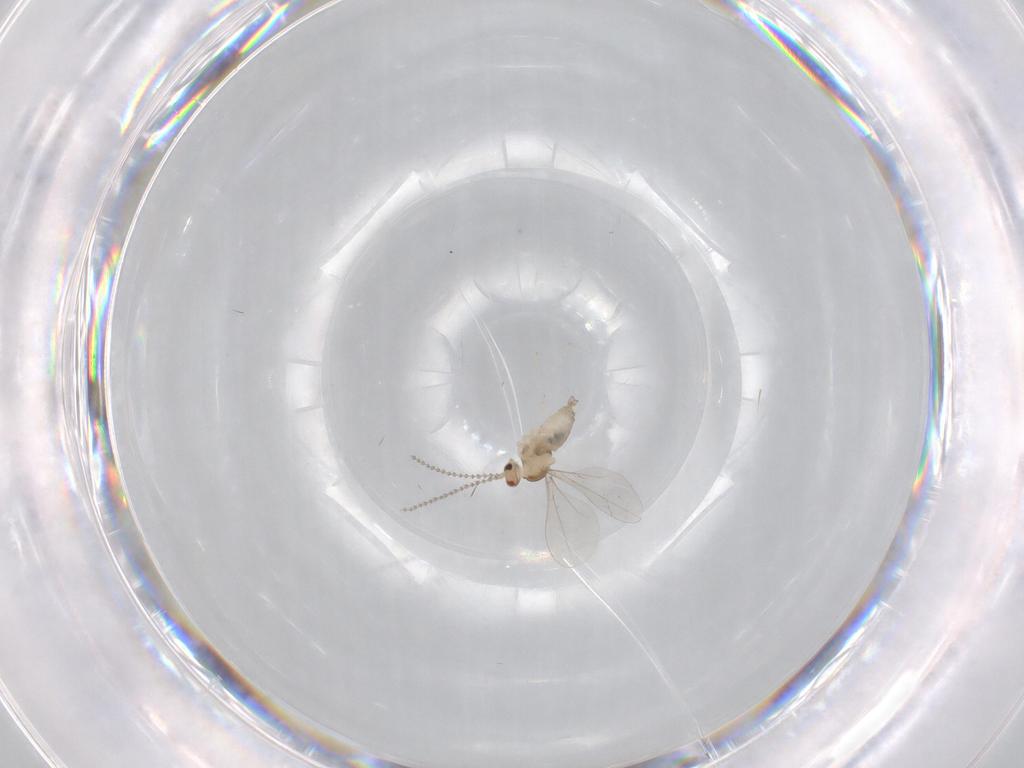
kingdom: Animalia
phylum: Arthropoda
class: Insecta
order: Diptera
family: Cecidomyiidae
